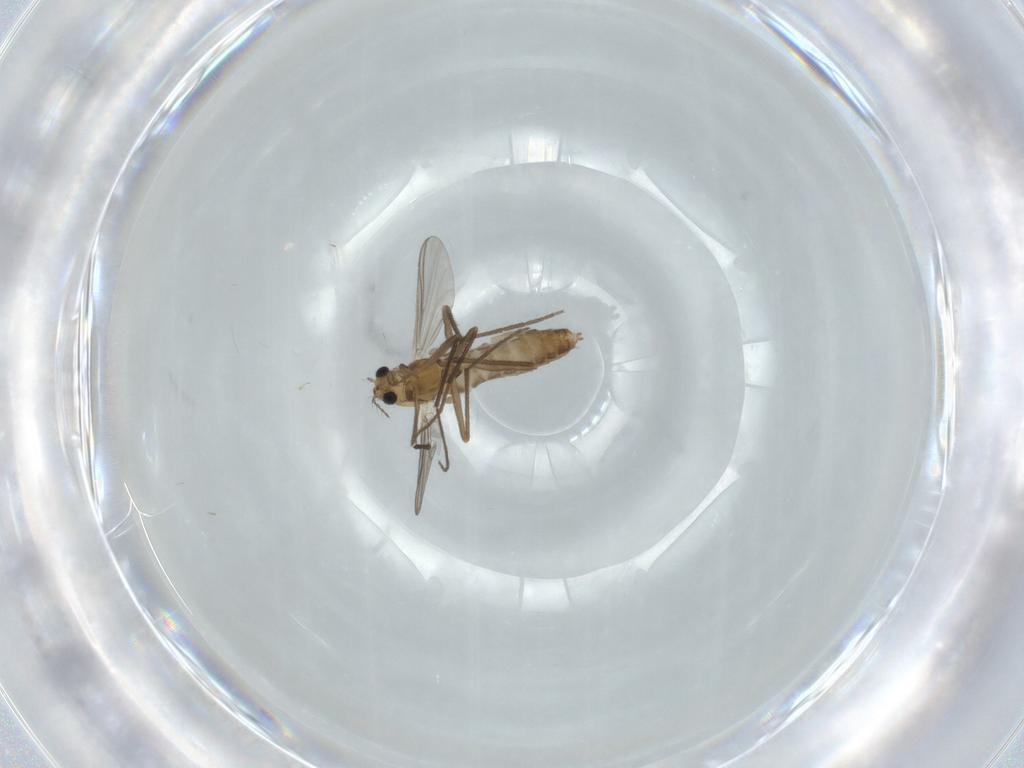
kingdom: Animalia
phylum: Arthropoda
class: Insecta
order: Diptera
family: Chironomidae
